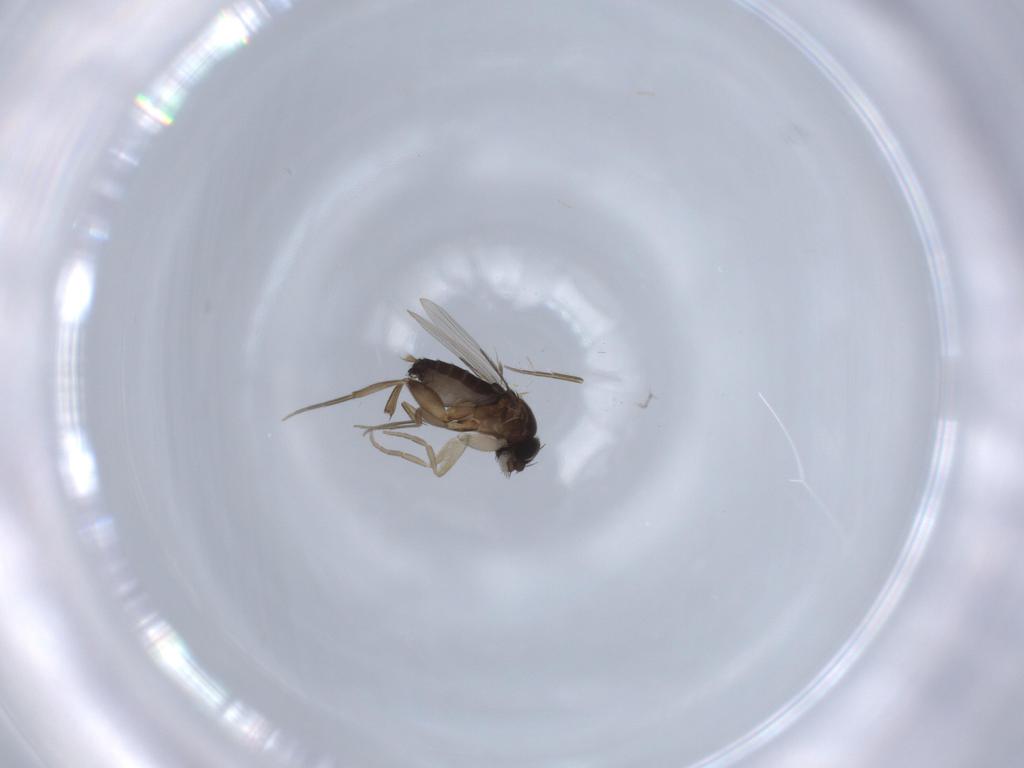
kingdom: Animalia
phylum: Arthropoda
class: Insecta
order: Diptera
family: Phoridae
